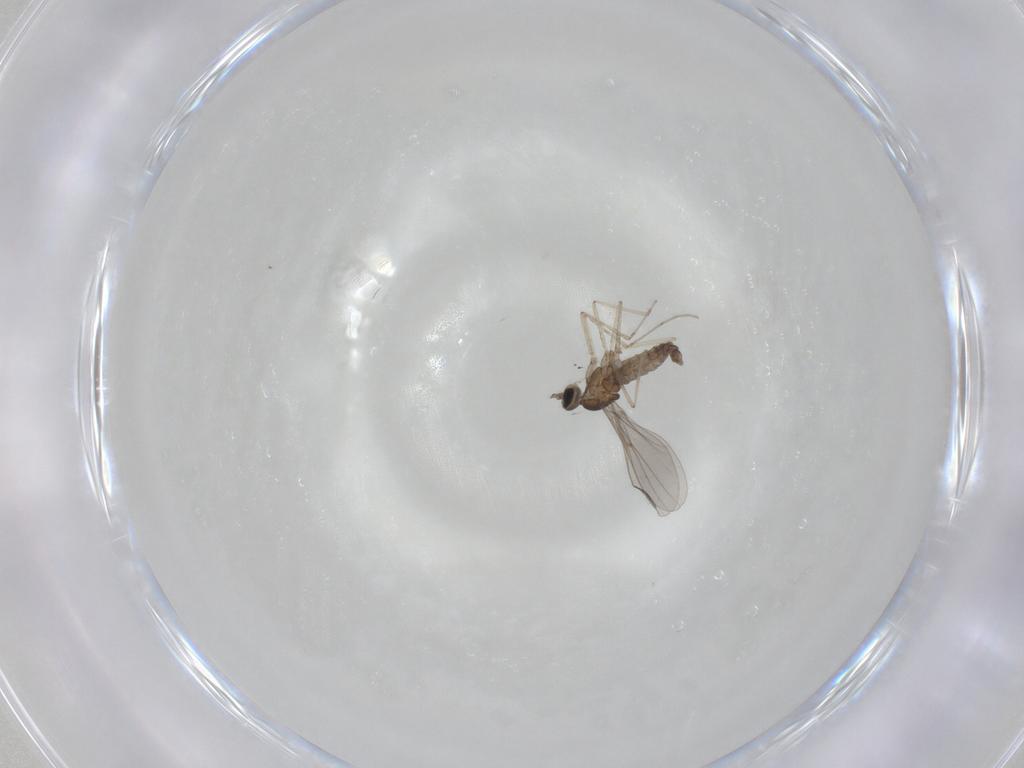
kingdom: Animalia
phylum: Arthropoda
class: Insecta
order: Diptera
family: Cecidomyiidae
